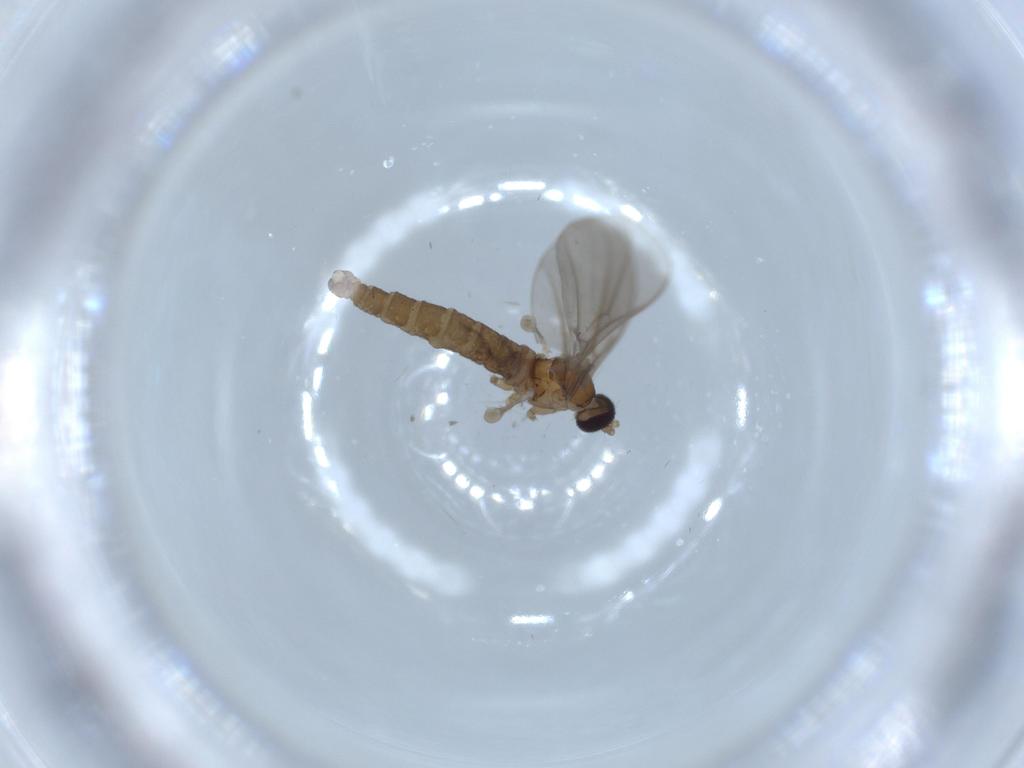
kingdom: Animalia
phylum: Arthropoda
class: Insecta
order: Diptera
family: Cecidomyiidae
